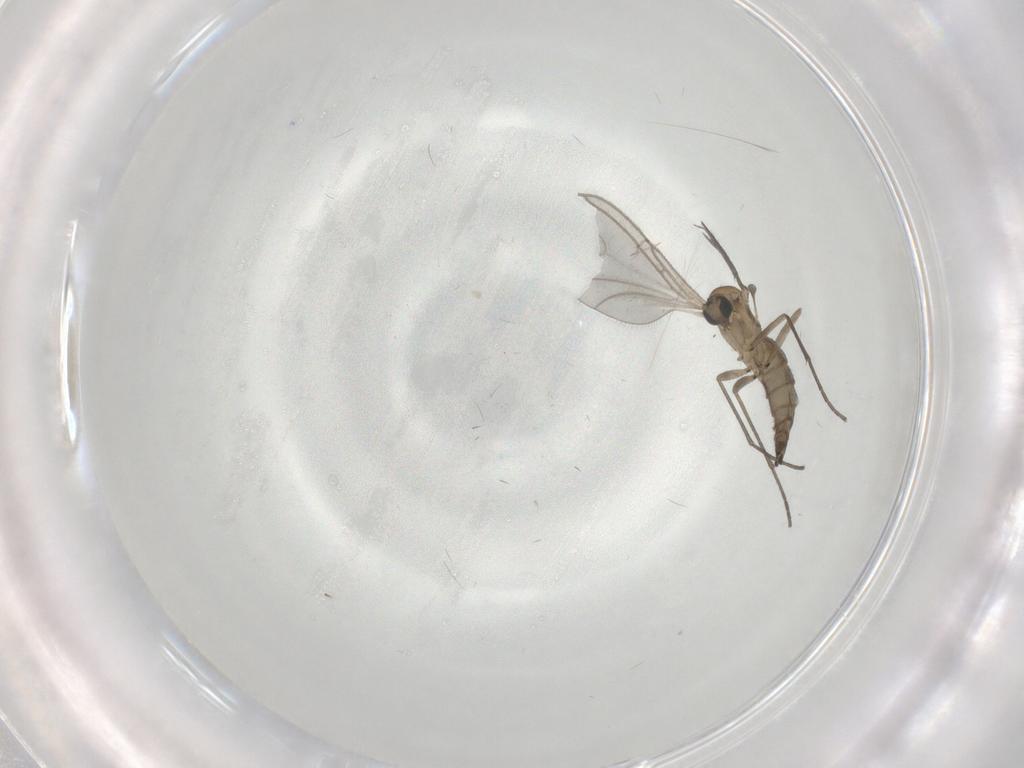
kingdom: Animalia
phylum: Arthropoda
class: Insecta
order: Diptera
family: Sciaridae
